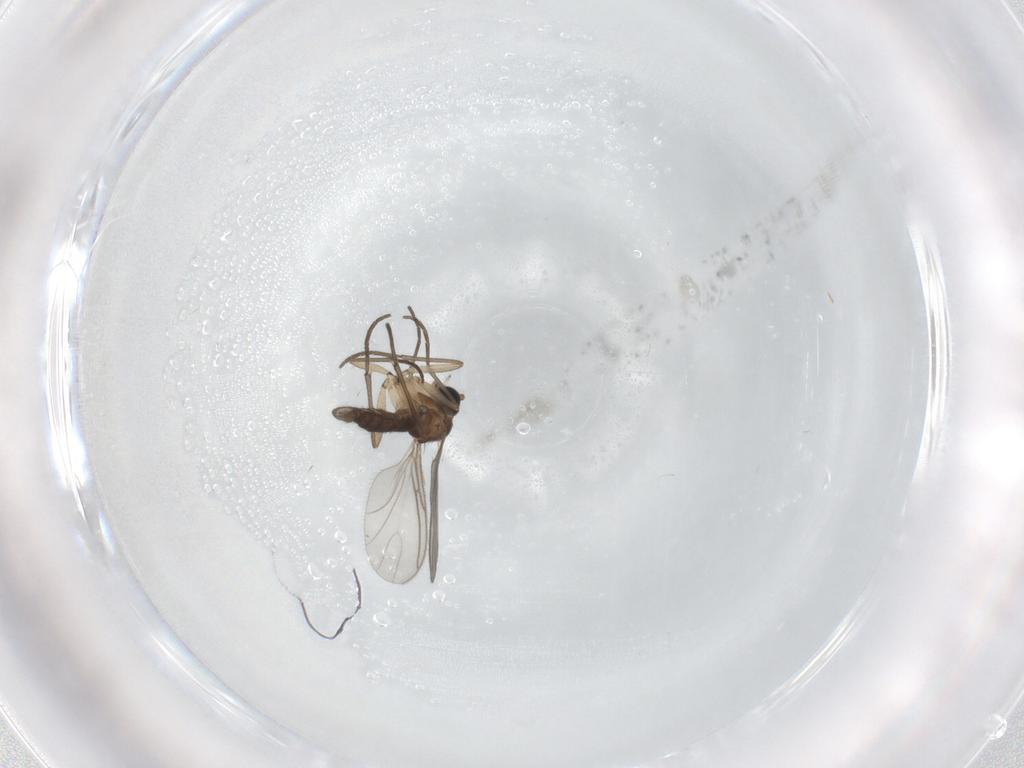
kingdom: Animalia
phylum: Arthropoda
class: Insecta
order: Diptera
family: Sciaridae
